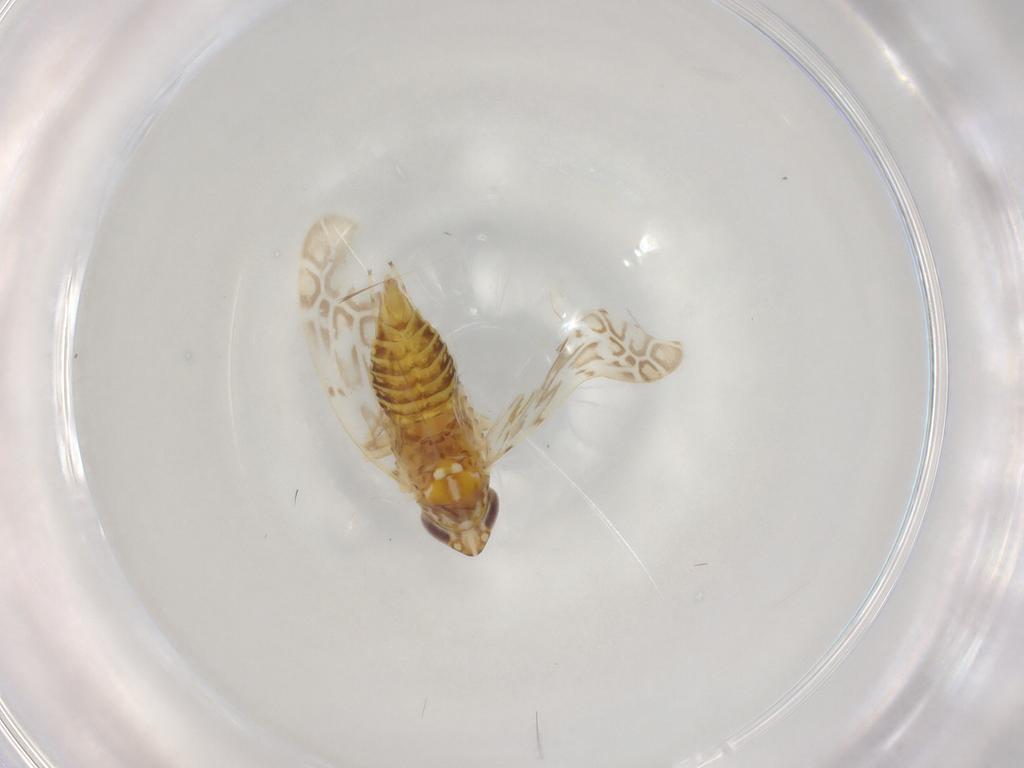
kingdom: Animalia
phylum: Arthropoda
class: Insecta
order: Hemiptera
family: Cicadellidae
